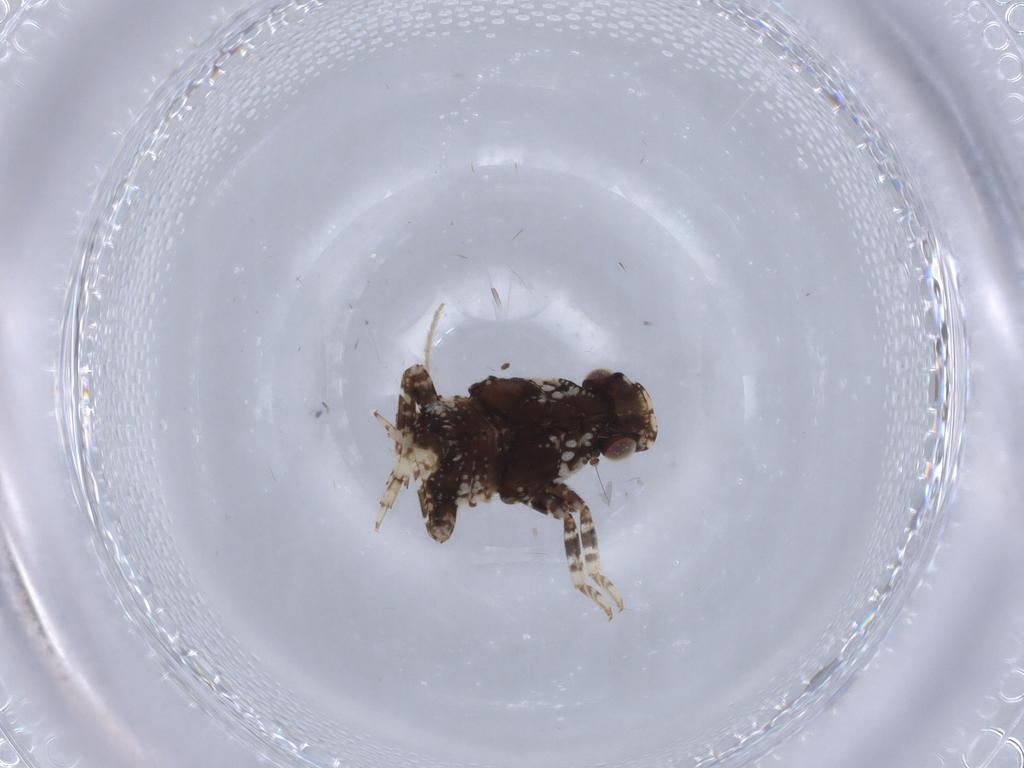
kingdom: Animalia
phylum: Arthropoda
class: Insecta
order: Hemiptera
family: Fulgoridae
